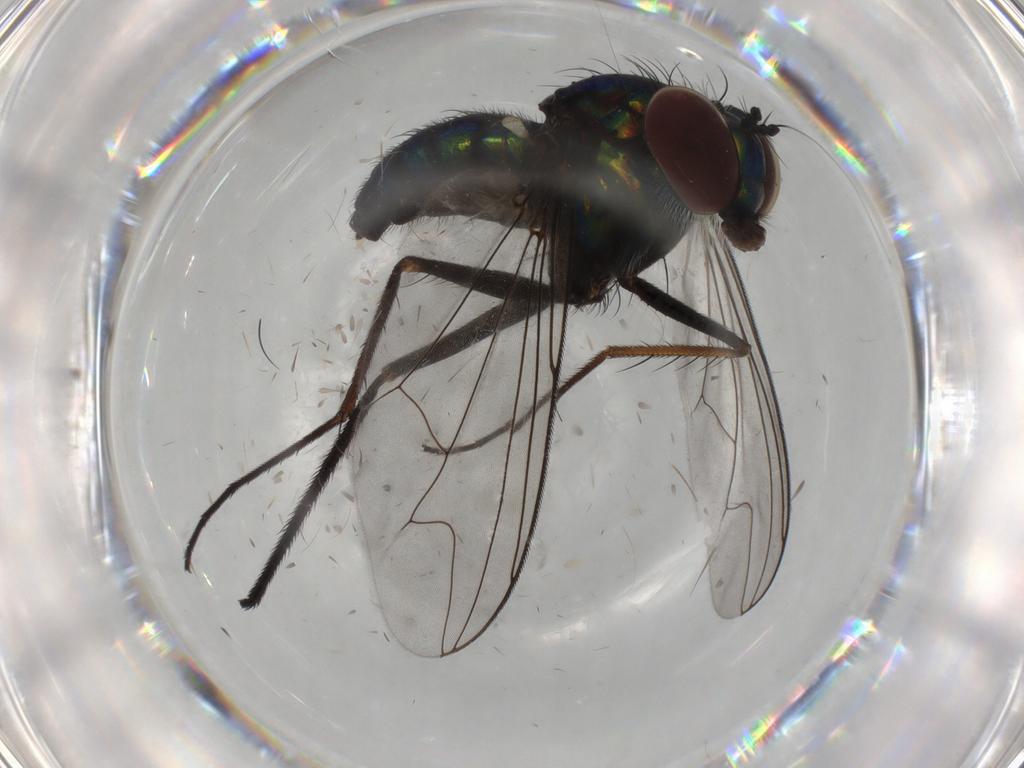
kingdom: Animalia
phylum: Arthropoda
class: Insecta
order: Diptera
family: Dolichopodidae
